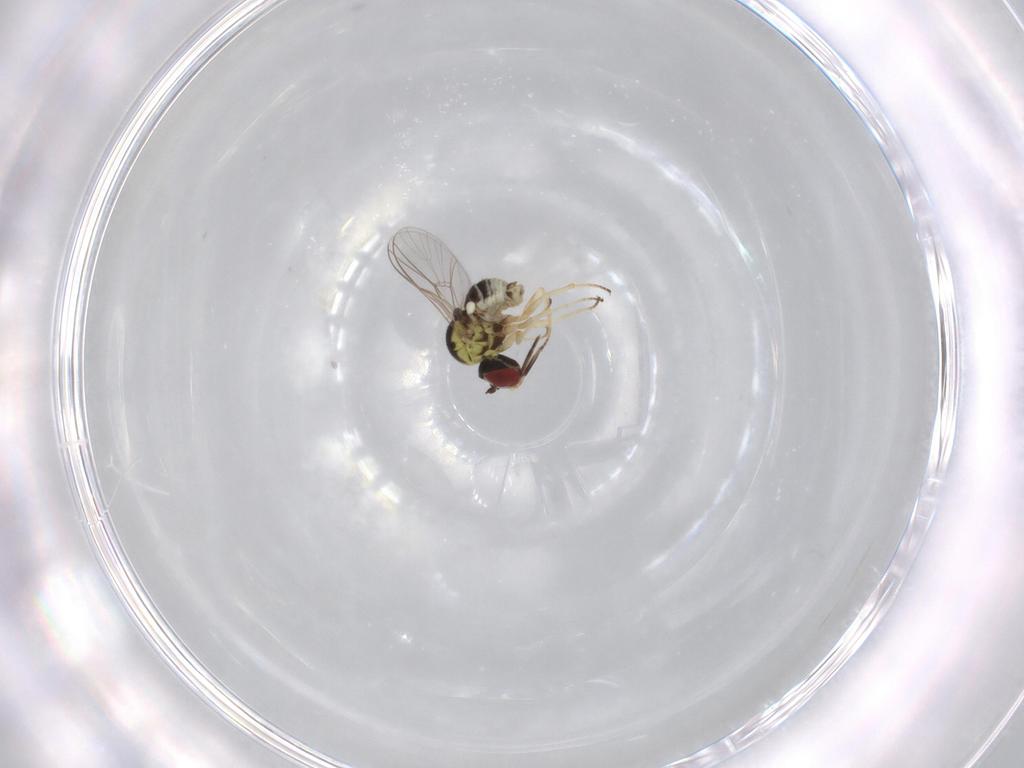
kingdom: Animalia
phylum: Arthropoda
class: Insecta
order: Diptera
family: Bombyliidae
